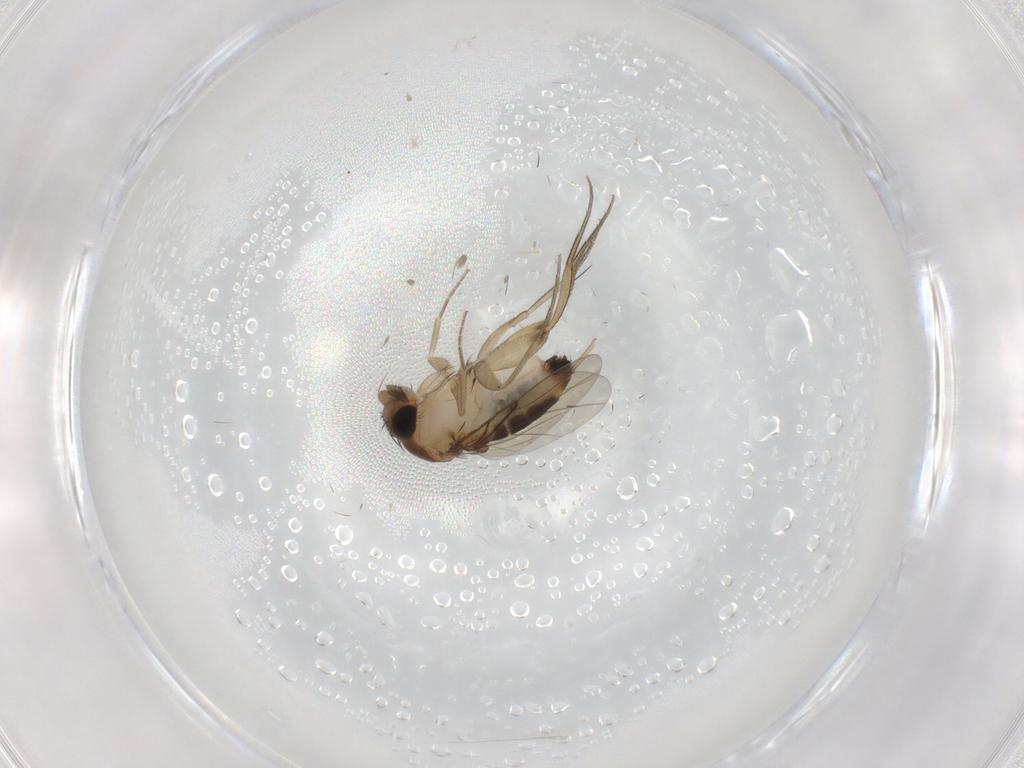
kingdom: Animalia
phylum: Arthropoda
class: Insecta
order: Diptera
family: Phoridae
